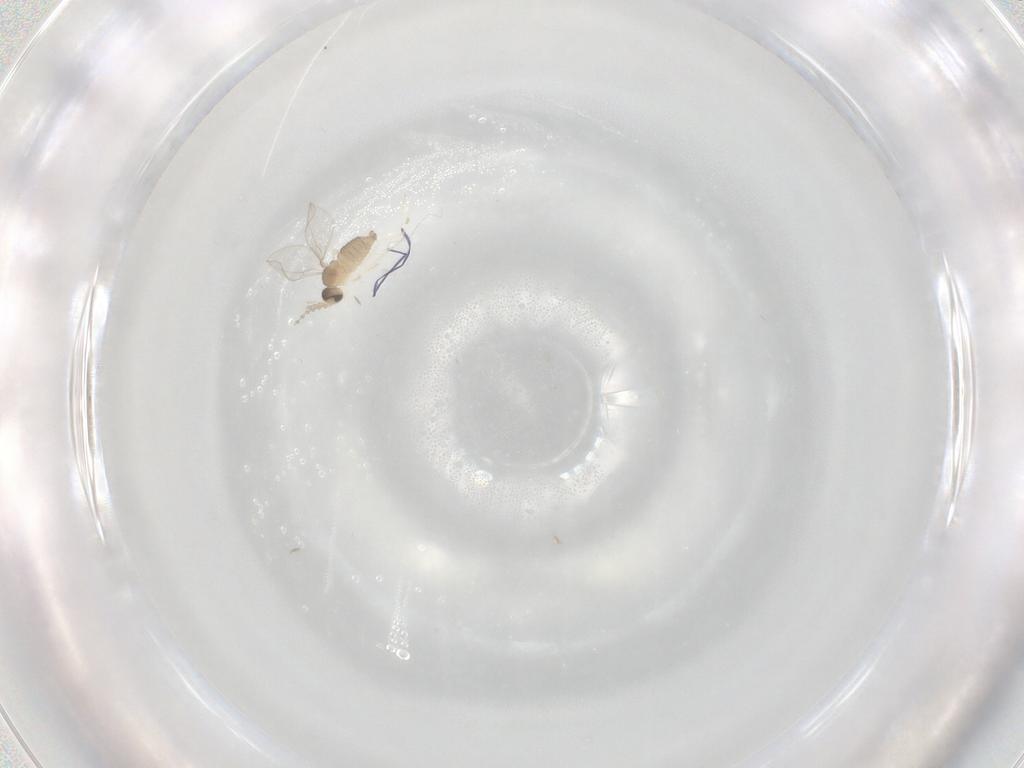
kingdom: Animalia
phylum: Arthropoda
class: Insecta
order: Diptera
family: Cecidomyiidae
